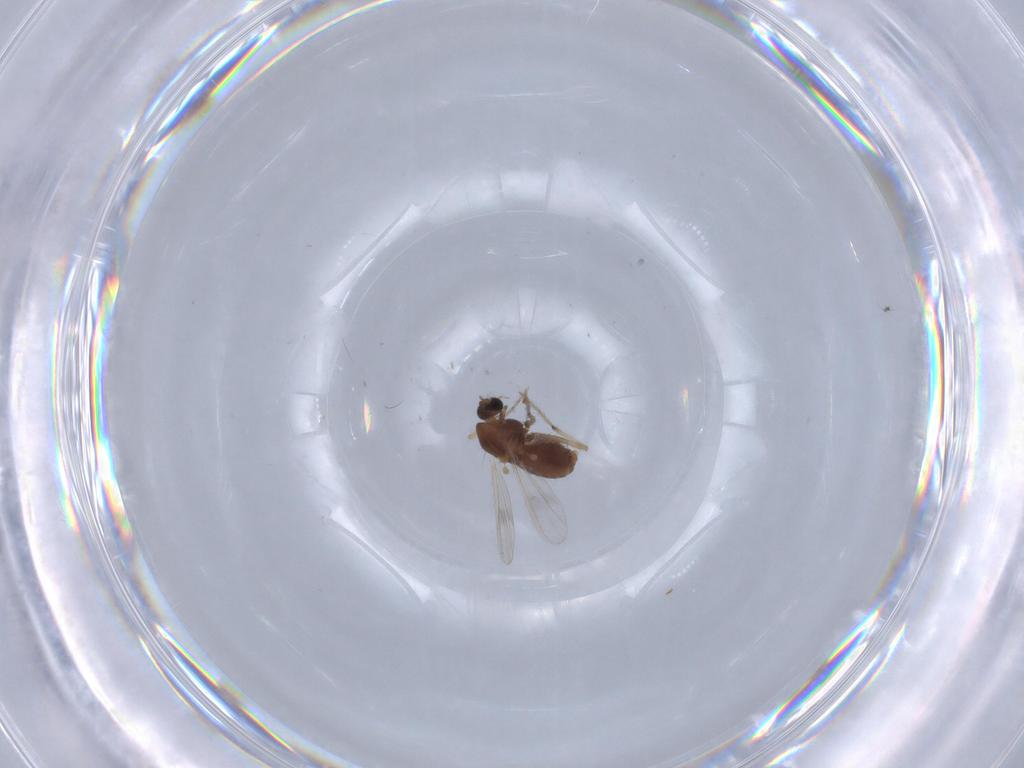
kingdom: Animalia
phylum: Arthropoda
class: Insecta
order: Diptera
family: Chironomidae
